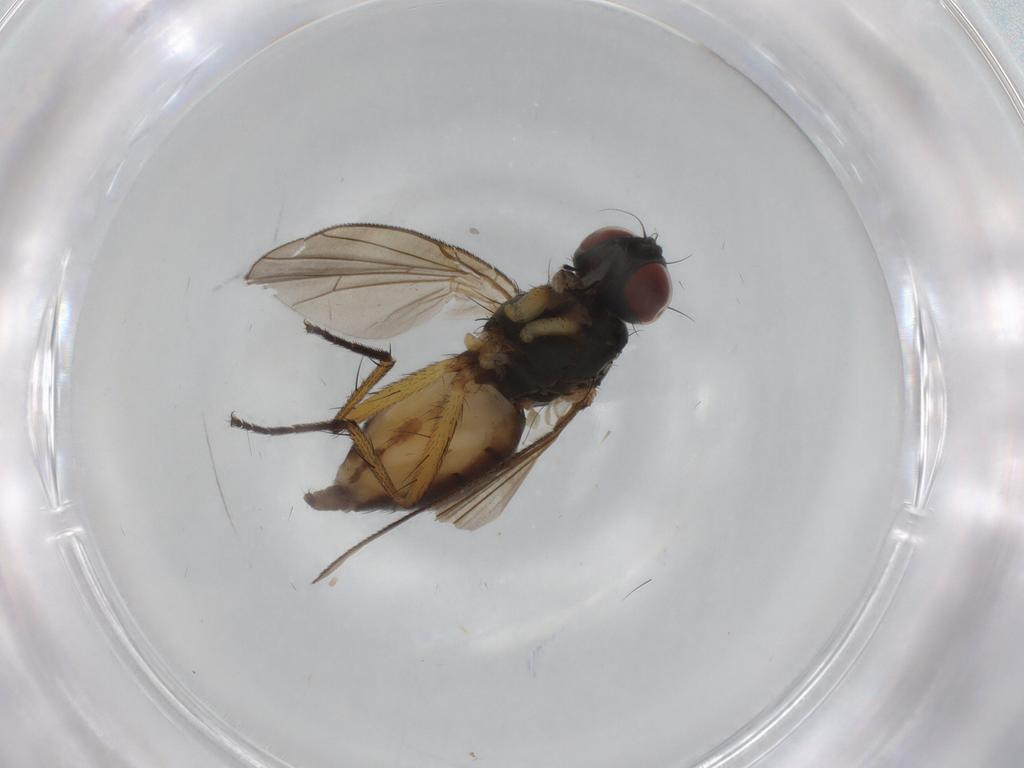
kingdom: Animalia
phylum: Arthropoda
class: Insecta
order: Diptera
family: Muscidae
